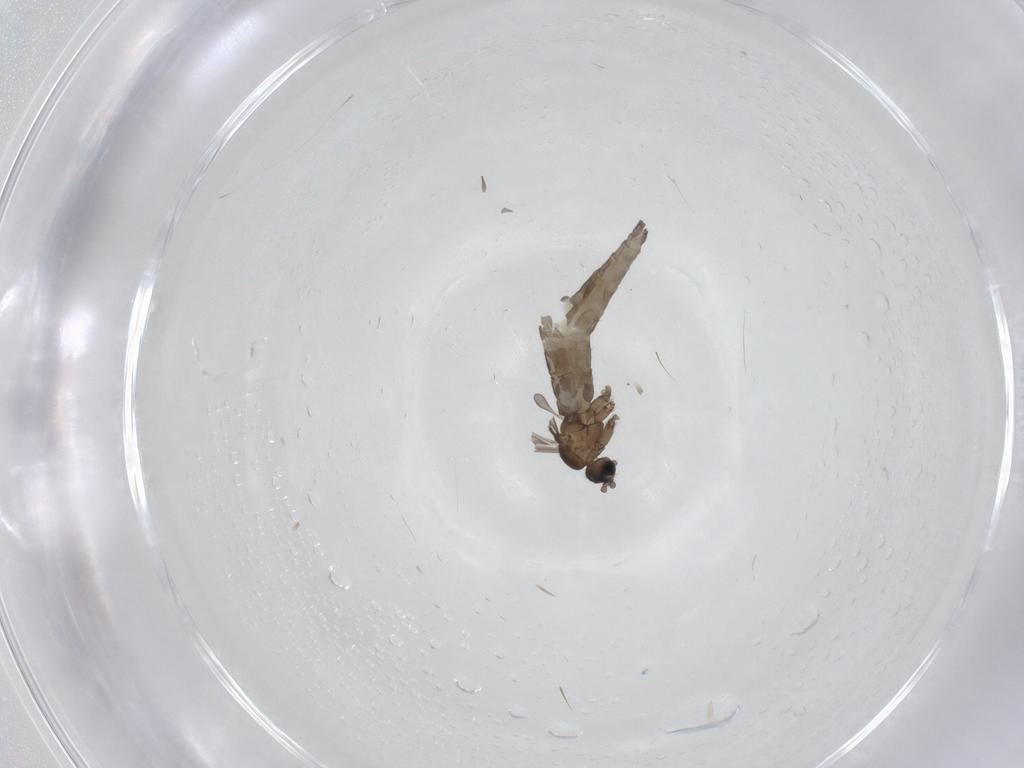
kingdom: Animalia
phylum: Arthropoda
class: Insecta
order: Diptera
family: Sciaridae
